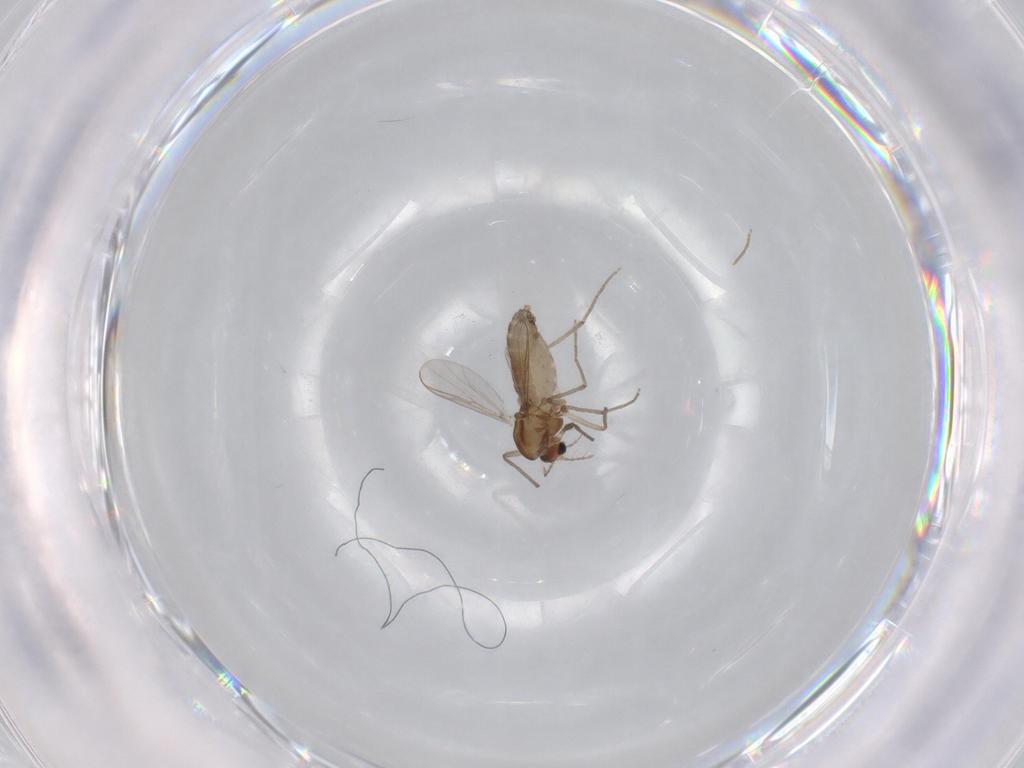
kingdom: Animalia
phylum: Arthropoda
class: Insecta
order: Diptera
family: Chironomidae
